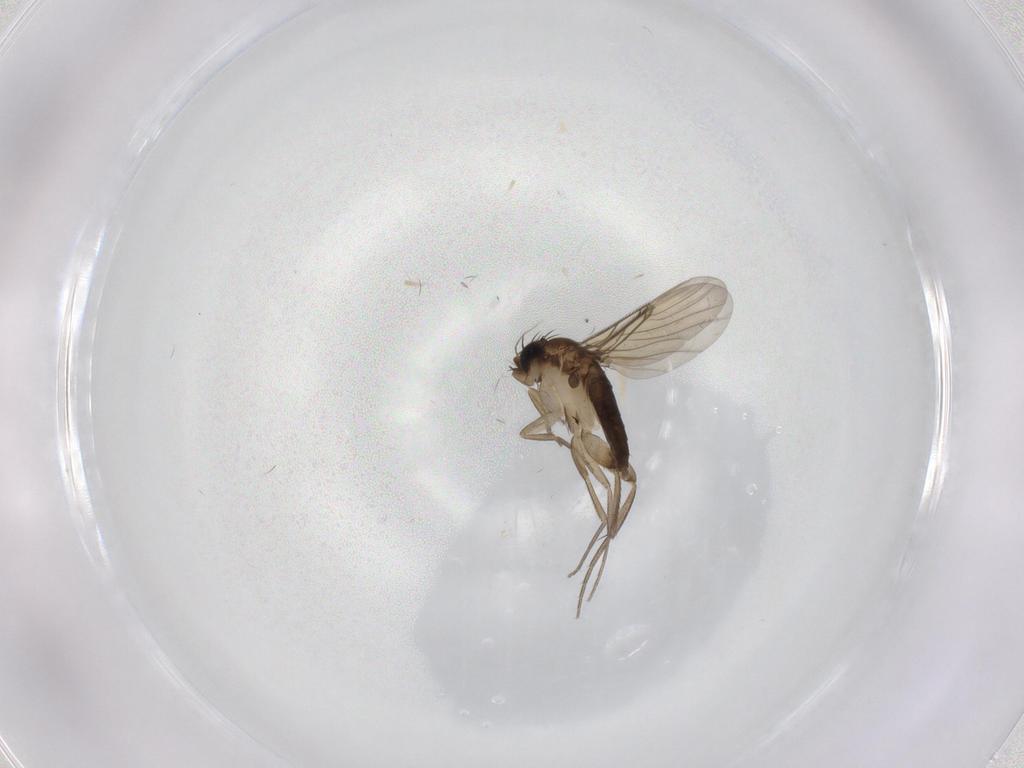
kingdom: Animalia
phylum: Arthropoda
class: Insecta
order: Diptera
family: Phoridae
